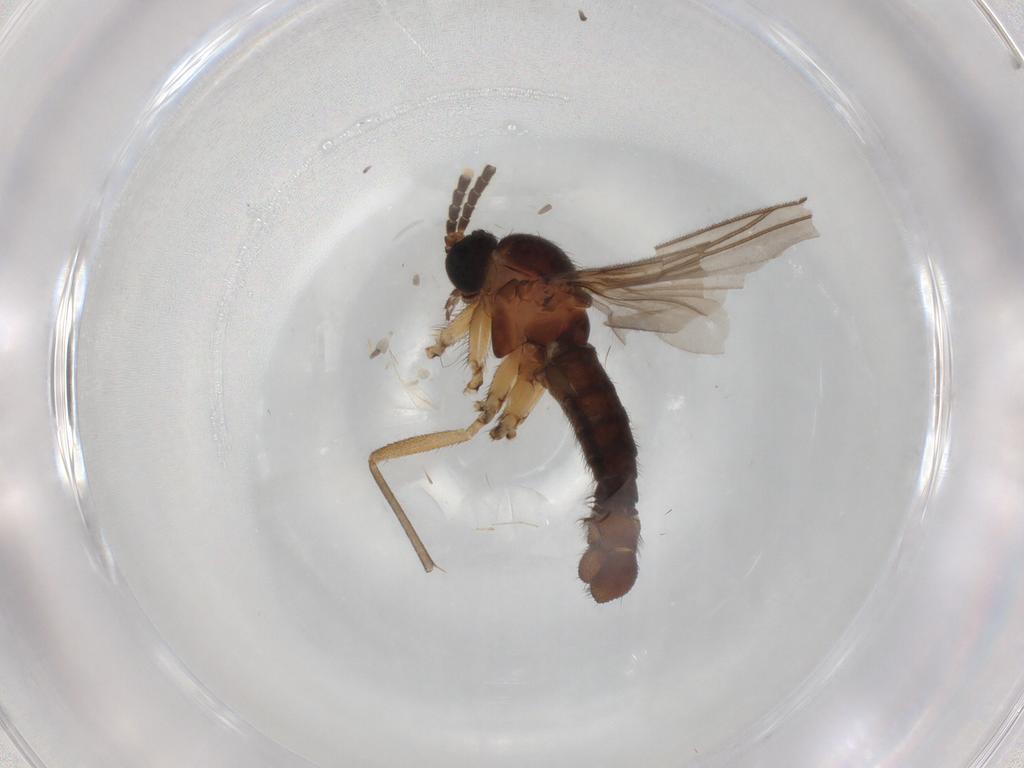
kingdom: Animalia
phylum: Arthropoda
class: Insecta
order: Diptera
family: Sciaridae
